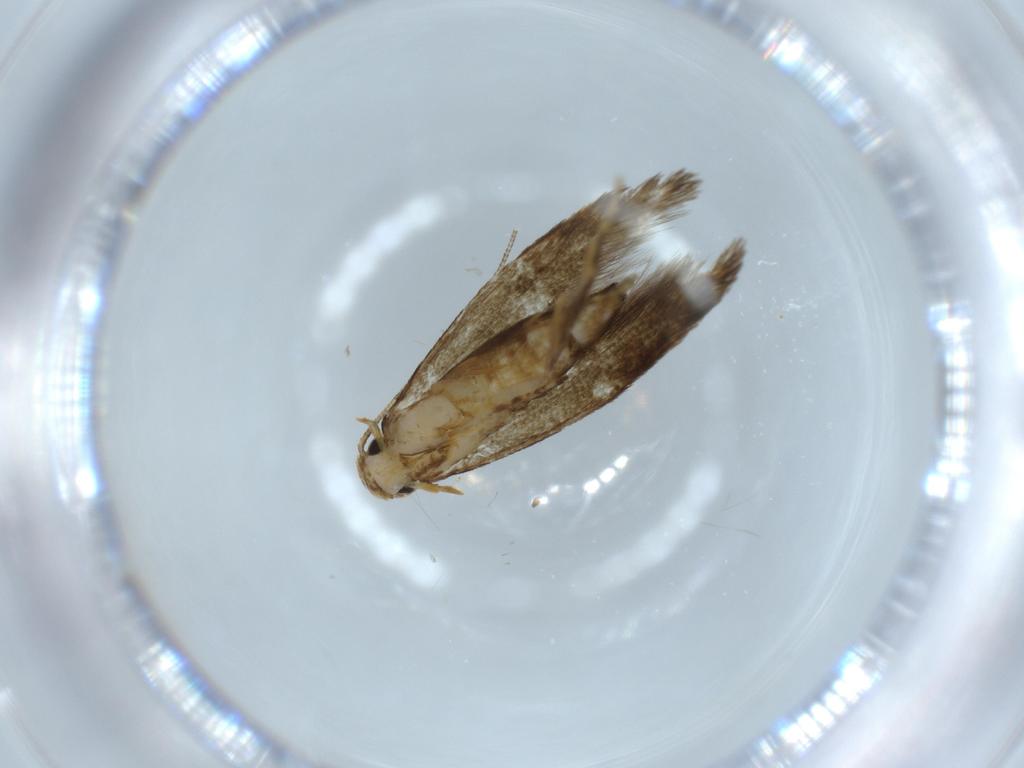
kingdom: Animalia
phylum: Arthropoda
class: Insecta
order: Lepidoptera
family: Tineidae
